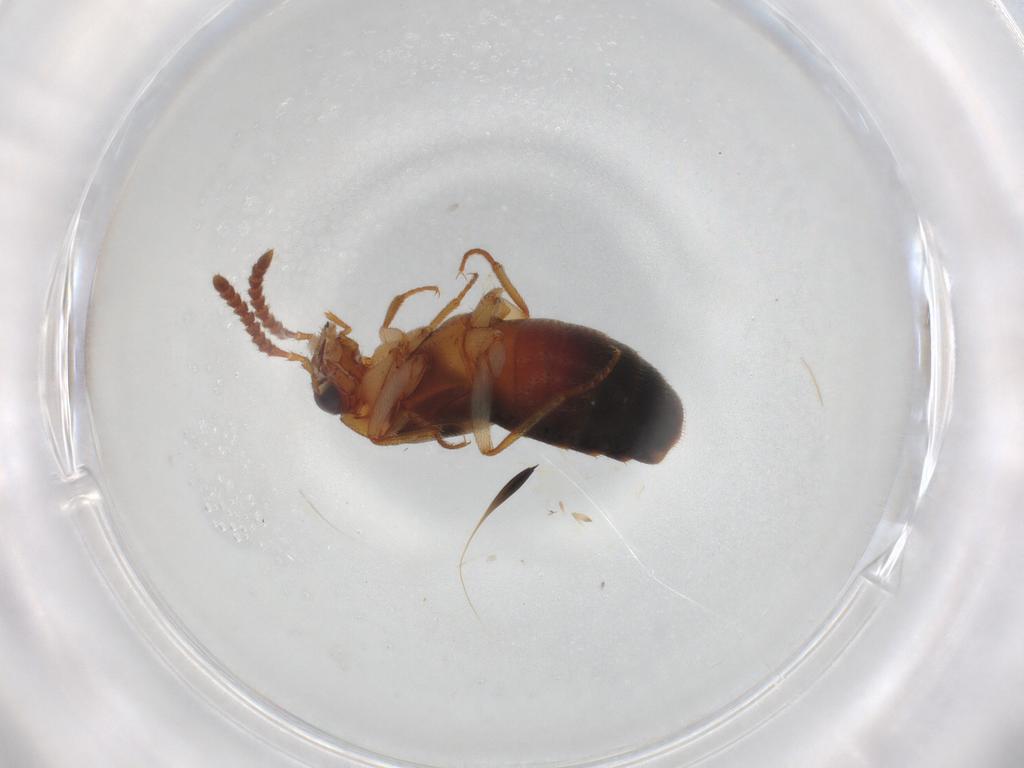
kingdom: Animalia
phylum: Arthropoda
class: Insecta
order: Coleoptera
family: Staphylinidae
